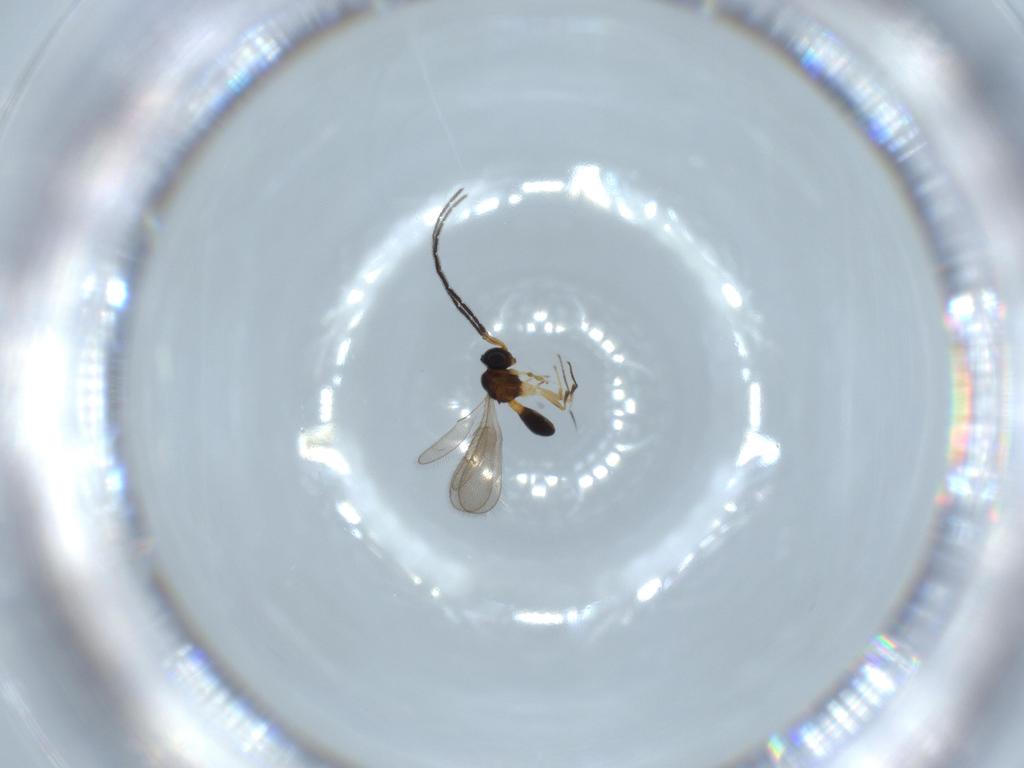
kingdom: Animalia
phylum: Arthropoda
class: Insecta
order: Hymenoptera
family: Scelionidae
